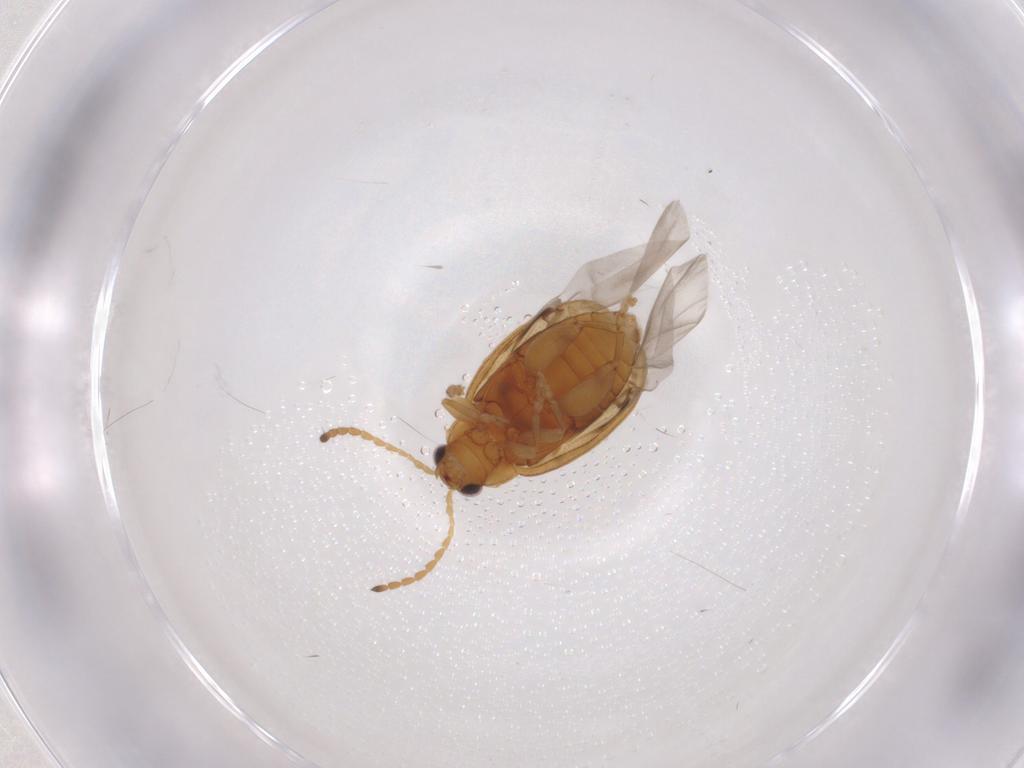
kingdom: Animalia
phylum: Arthropoda
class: Insecta
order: Coleoptera
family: Chrysomelidae
